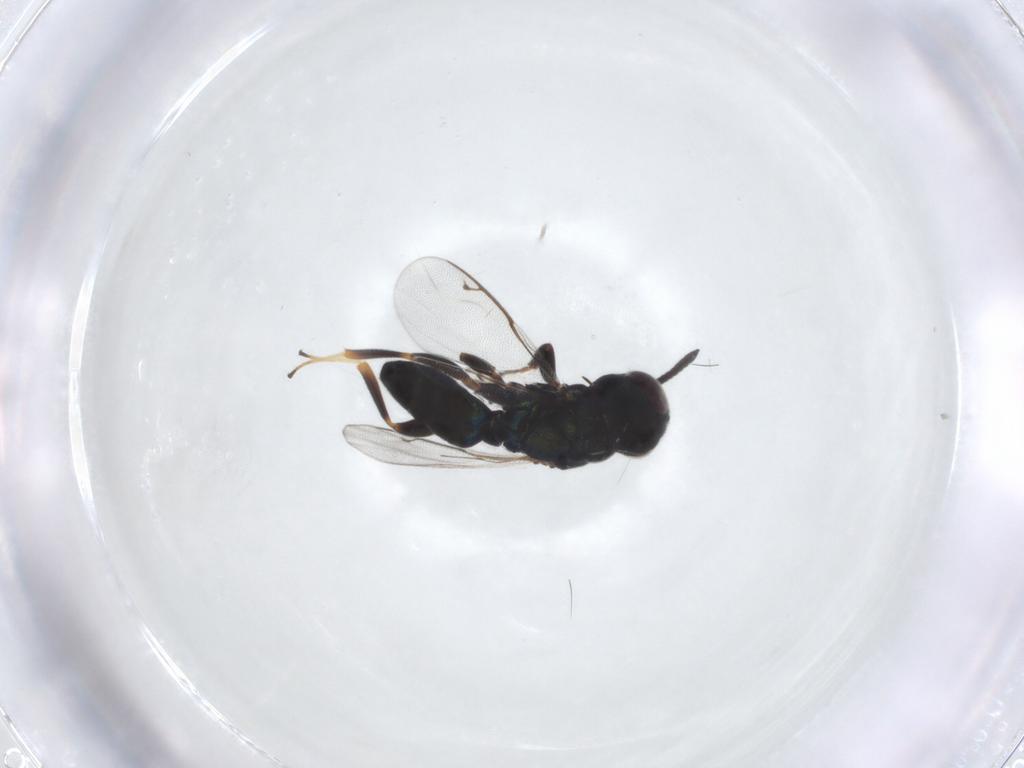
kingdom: Animalia
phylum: Arthropoda
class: Insecta
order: Hymenoptera
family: Pteromalidae
